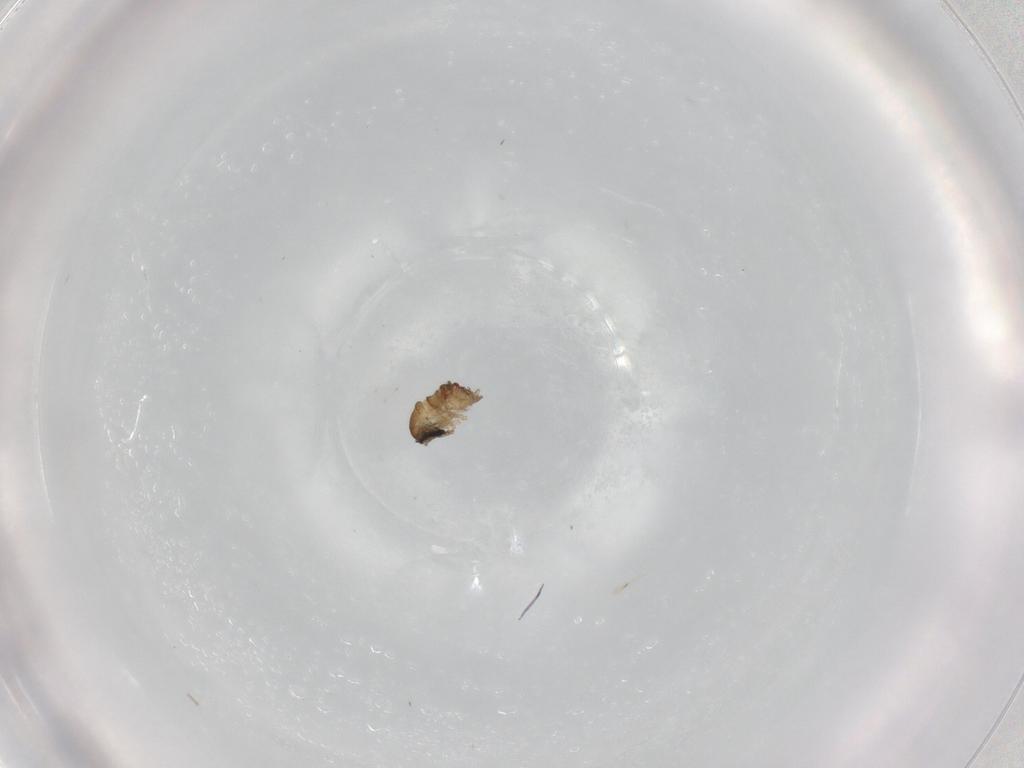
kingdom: Animalia
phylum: Arthropoda
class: Insecta
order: Diptera
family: Psychodidae
